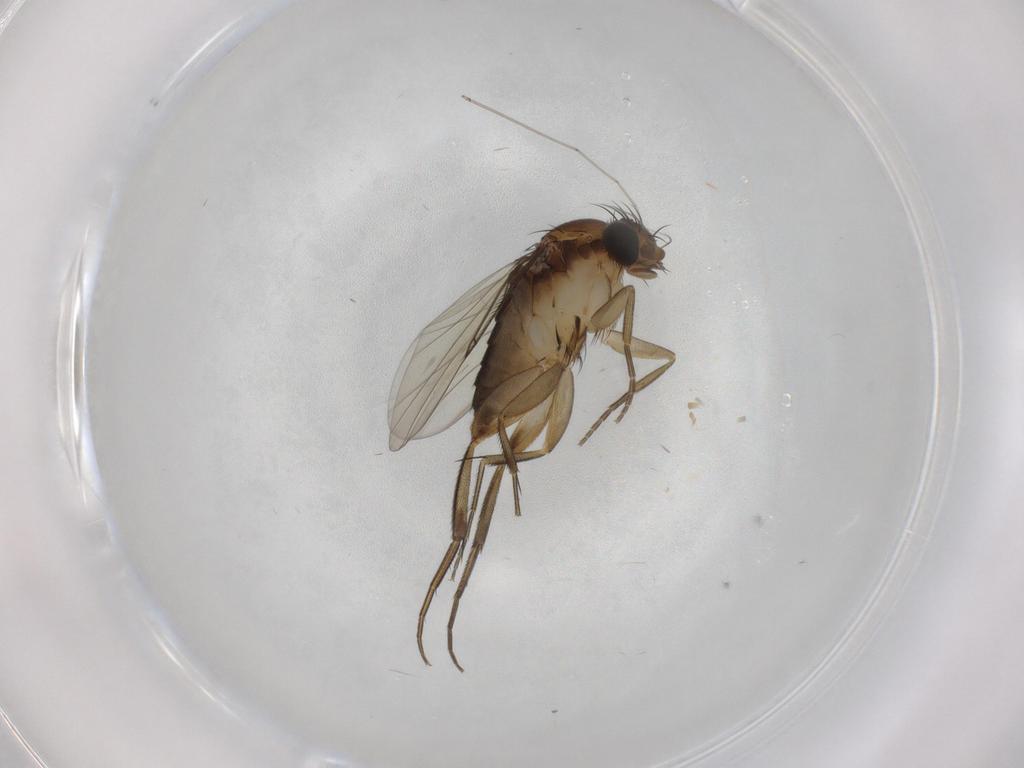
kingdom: Animalia
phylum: Arthropoda
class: Insecta
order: Diptera
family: Phoridae
